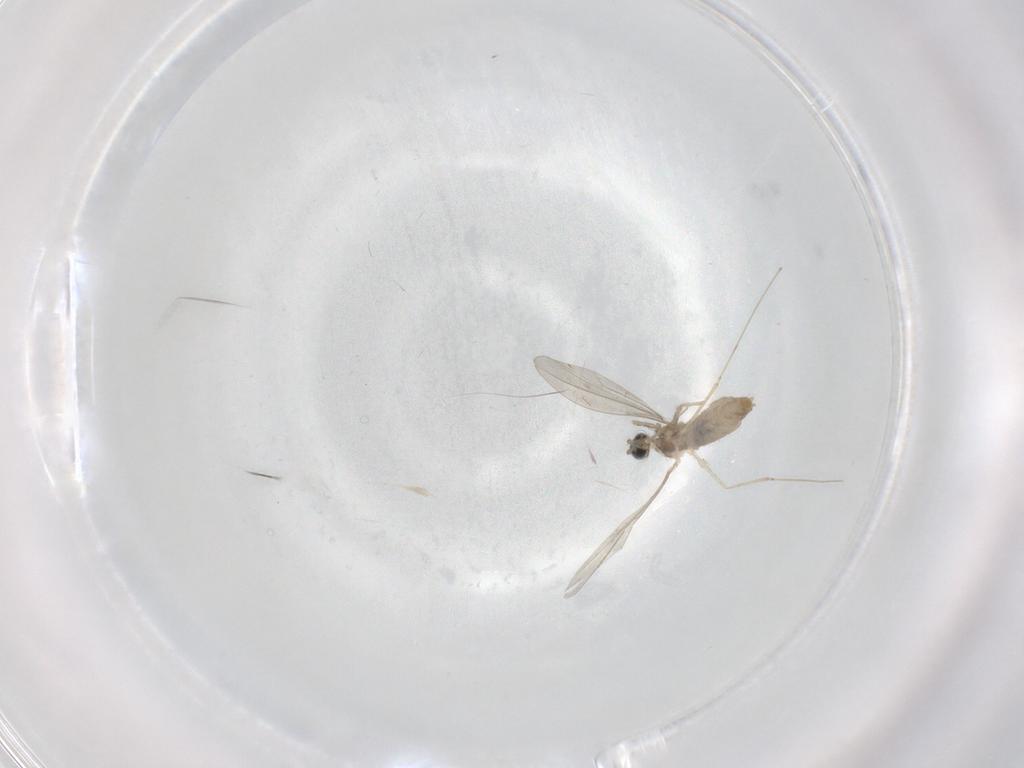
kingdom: Animalia
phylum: Arthropoda
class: Insecta
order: Diptera
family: Cecidomyiidae
